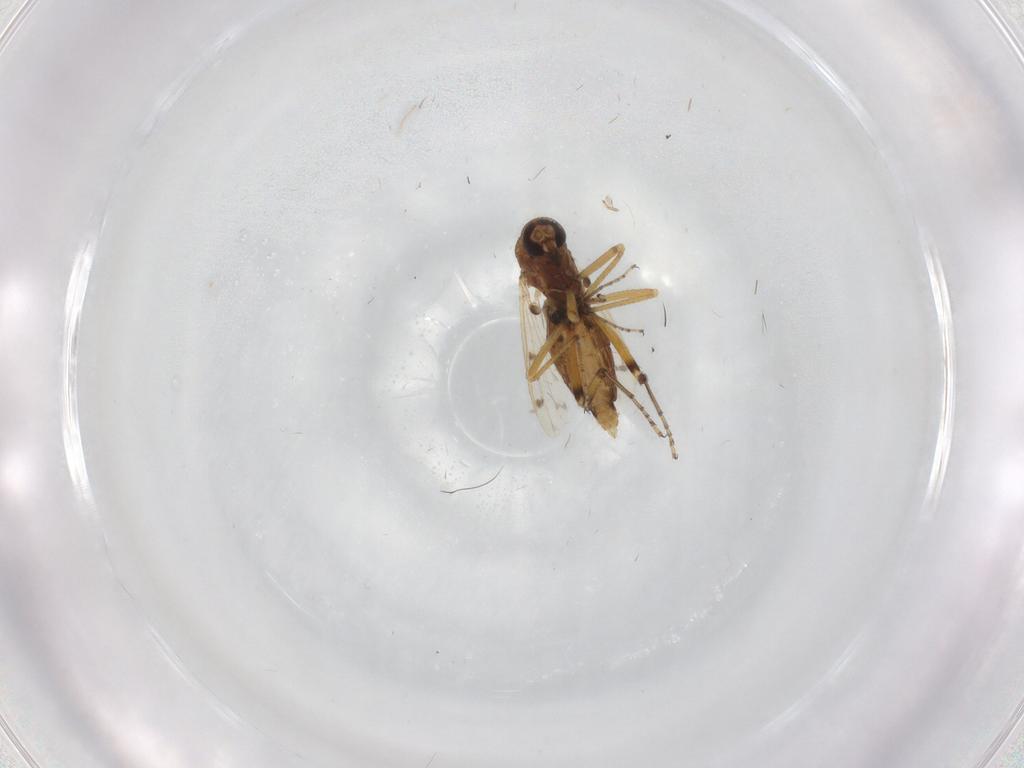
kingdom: Animalia
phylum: Arthropoda
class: Insecta
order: Diptera
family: Ceratopogonidae
